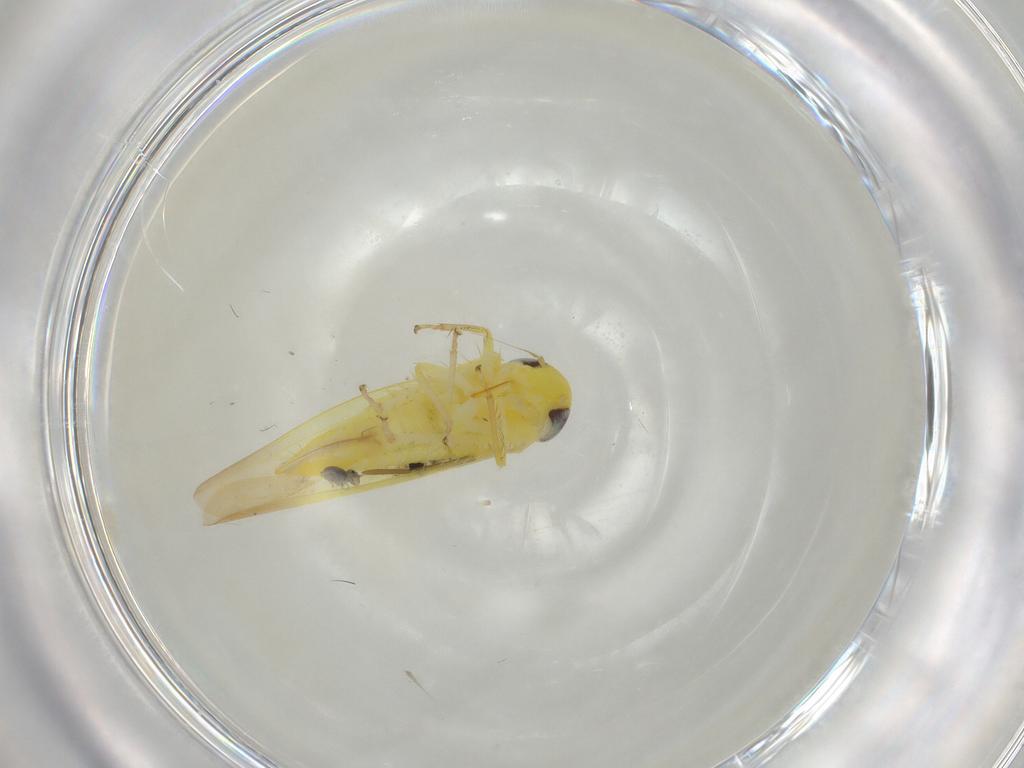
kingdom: Animalia
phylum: Arthropoda
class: Insecta
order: Hemiptera
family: Cicadellidae
